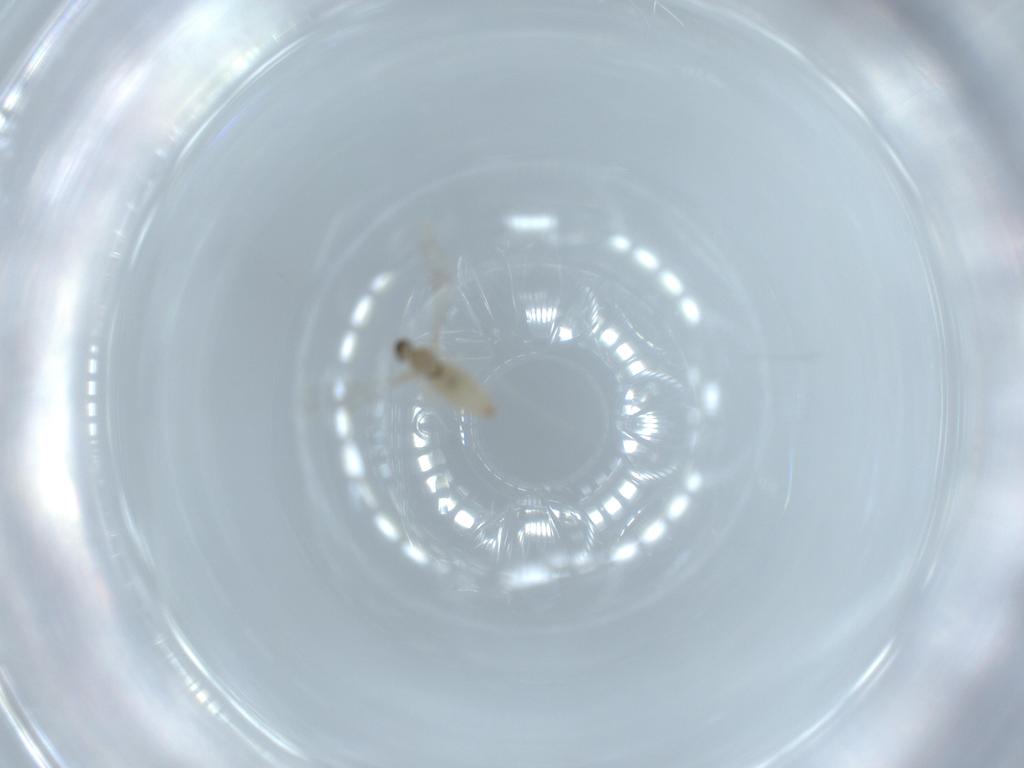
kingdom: Animalia
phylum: Arthropoda
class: Insecta
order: Diptera
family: Cecidomyiidae
